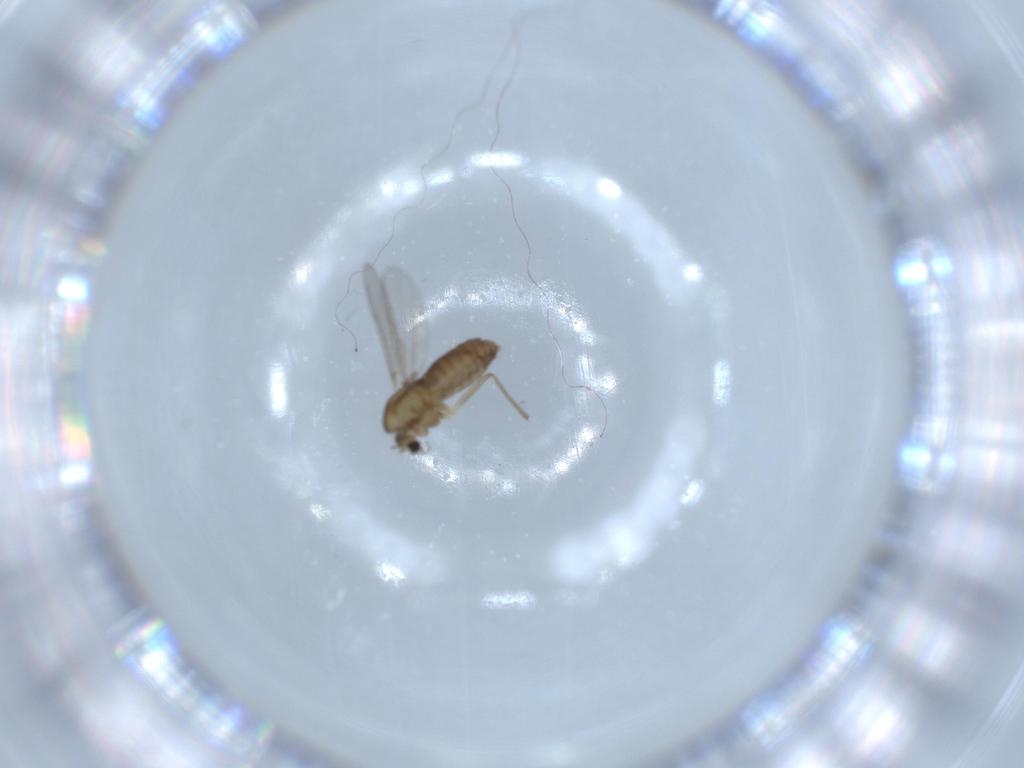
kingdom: Animalia
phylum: Arthropoda
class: Insecta
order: Diptera
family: Chironomidae
